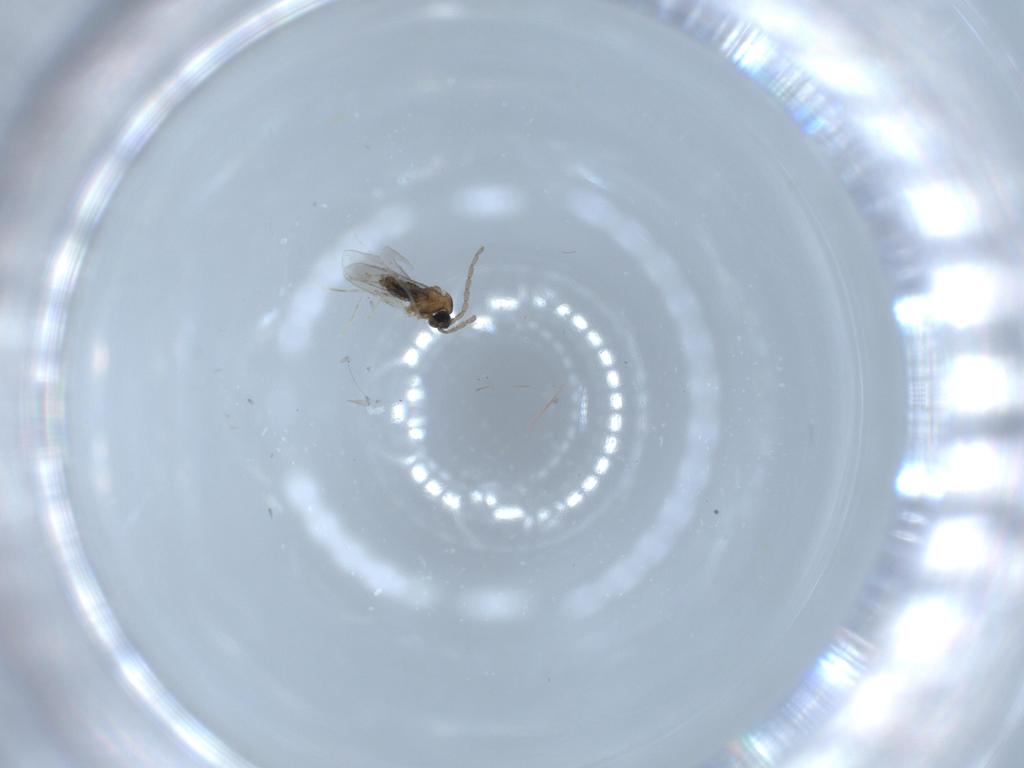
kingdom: Animalia
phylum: Arthropoda
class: Insecta
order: Diptera
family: Cecidomyiidae
